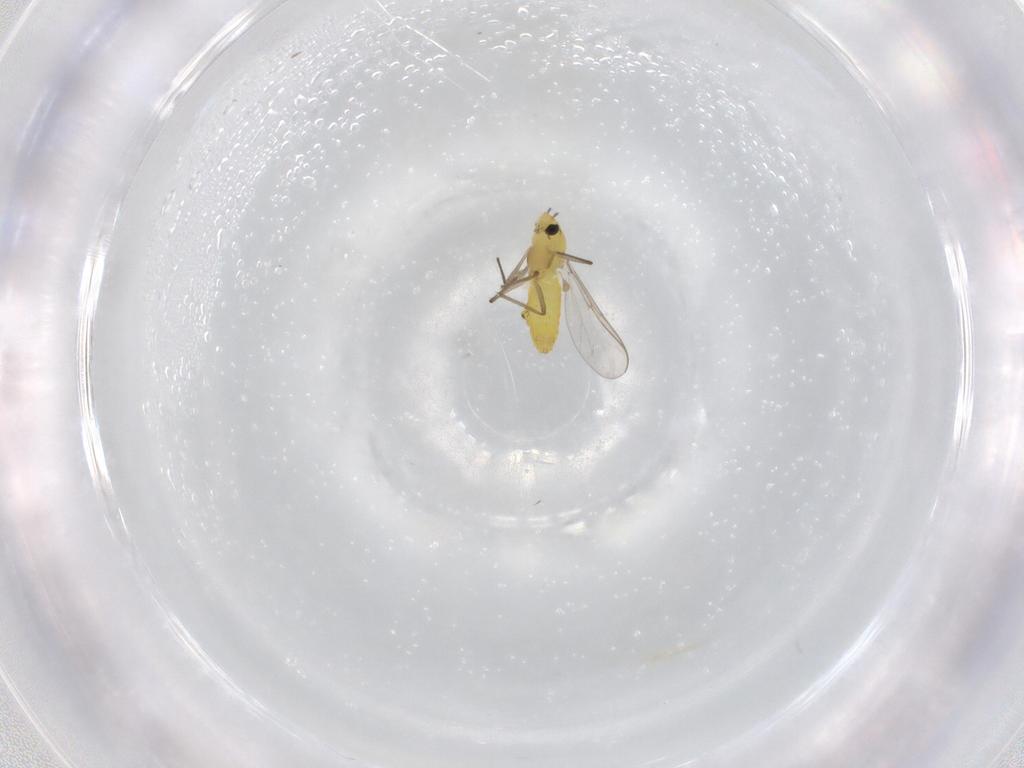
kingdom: Animalia
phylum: Arthropoda
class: Insecta
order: Diptera
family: Chironomidae
